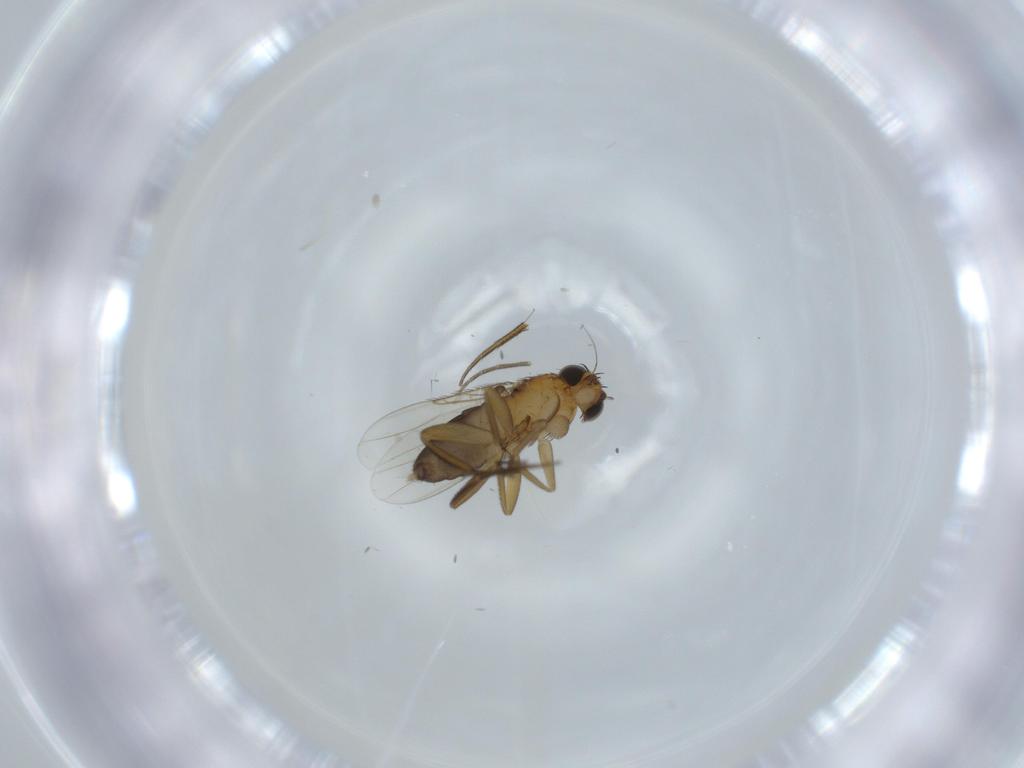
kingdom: Animalia
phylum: Arthropoda
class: Insecta
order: Diptera
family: Phoridae
